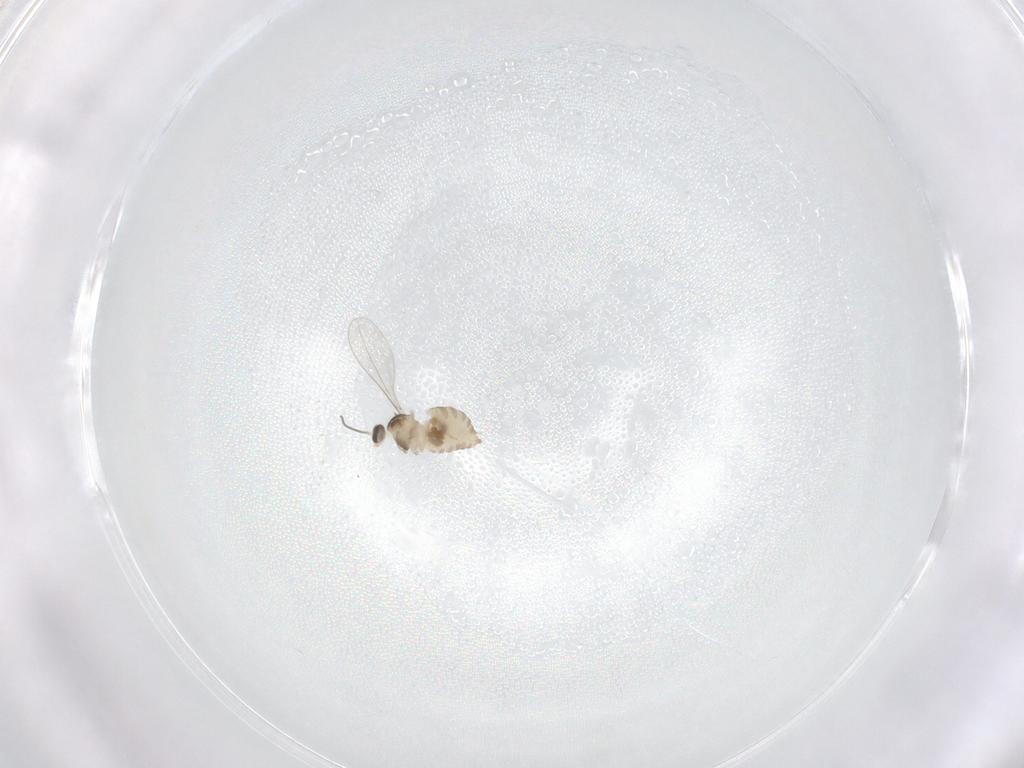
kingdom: Animalia
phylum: Arthropoda
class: Insecta
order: Diptera
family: Cecidomyiidae
